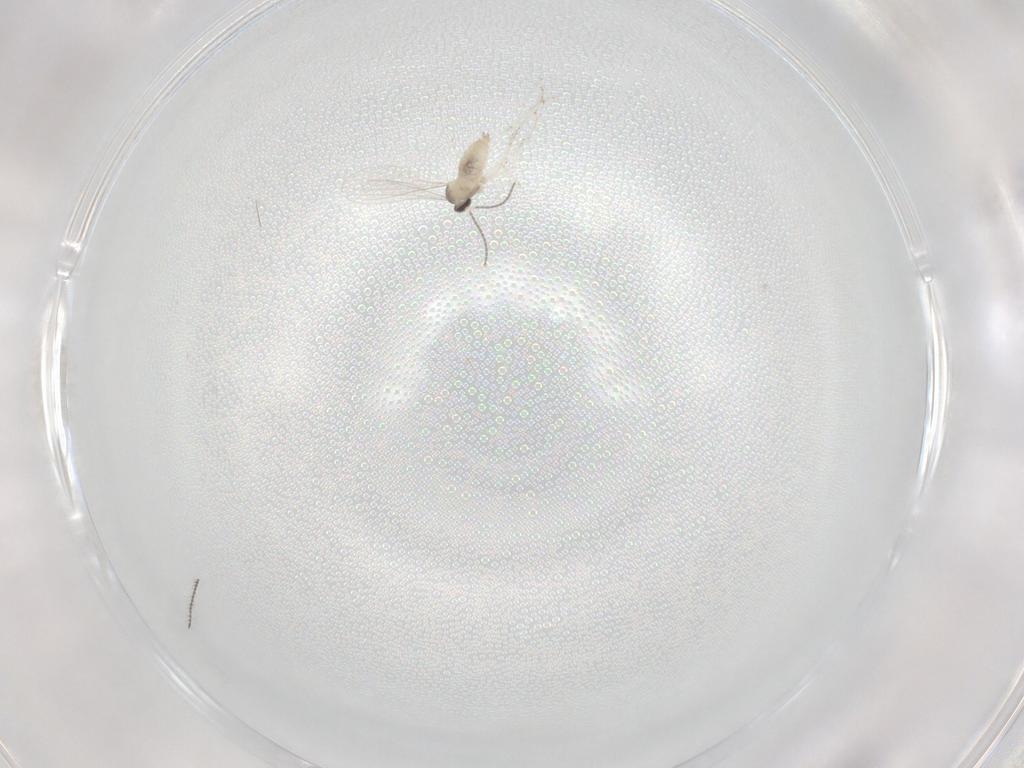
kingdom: Animalia
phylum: Arthropoda
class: Insecta
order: Diptera
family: Cecidomyiidae
